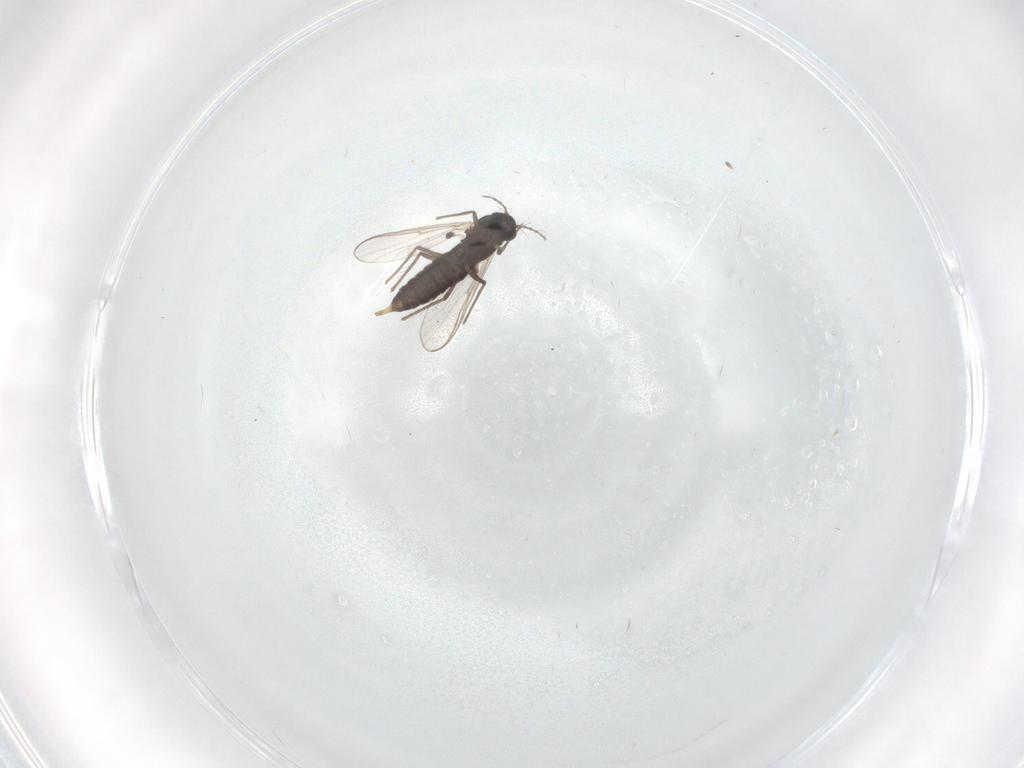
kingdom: Animalia
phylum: Arthropoda
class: Insecta
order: Diptera
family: Chironomidae
